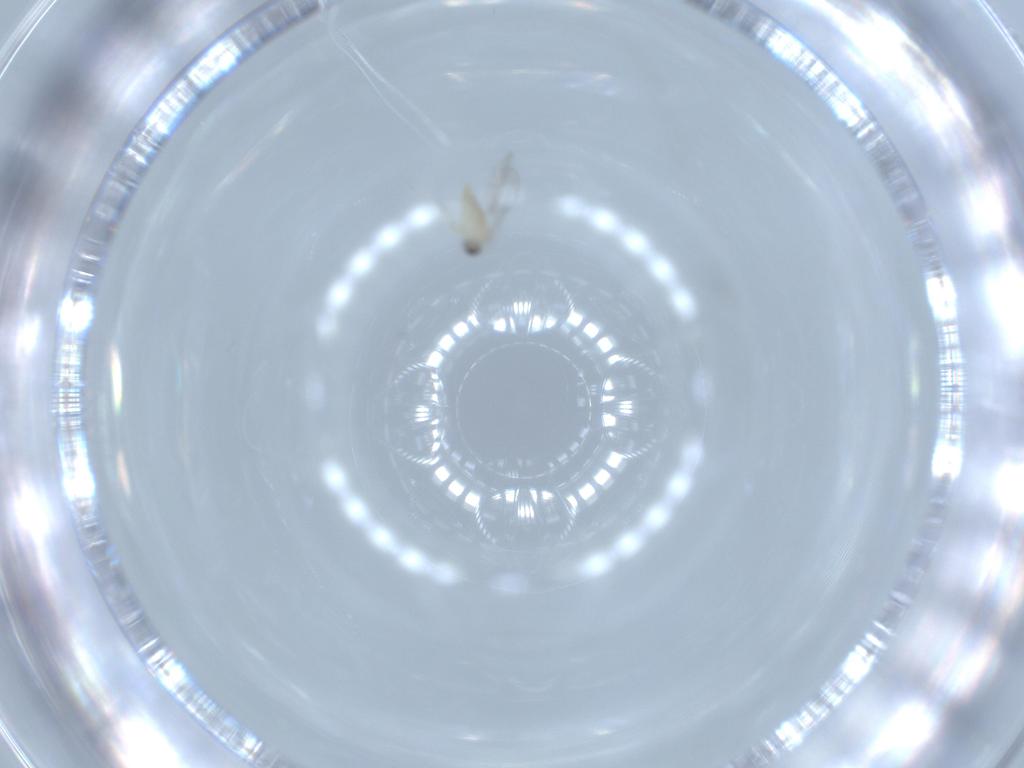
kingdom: Animalia
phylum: Arthropoda
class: Insecta
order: Diptera
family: Cecidomyiidae
